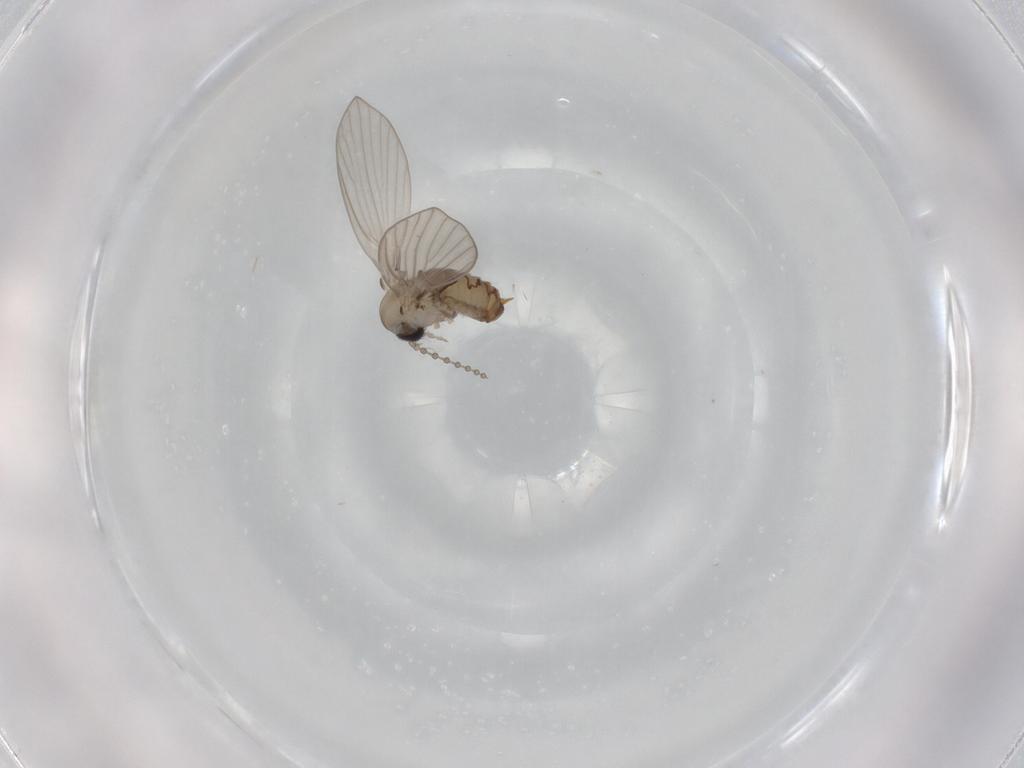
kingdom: Animalia
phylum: Arthropoda
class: Insecta
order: Diptera
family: Psychodidae
